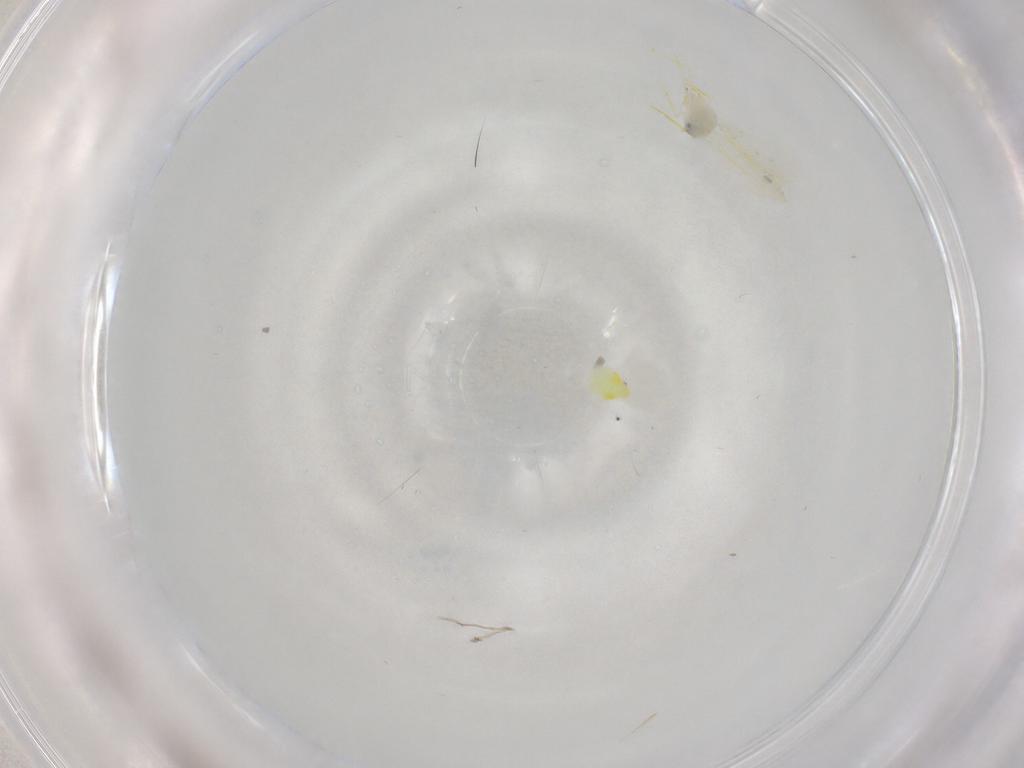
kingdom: Animalia
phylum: Arthropoda
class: Insecta
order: Hemiptera
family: Aleyrodidae
